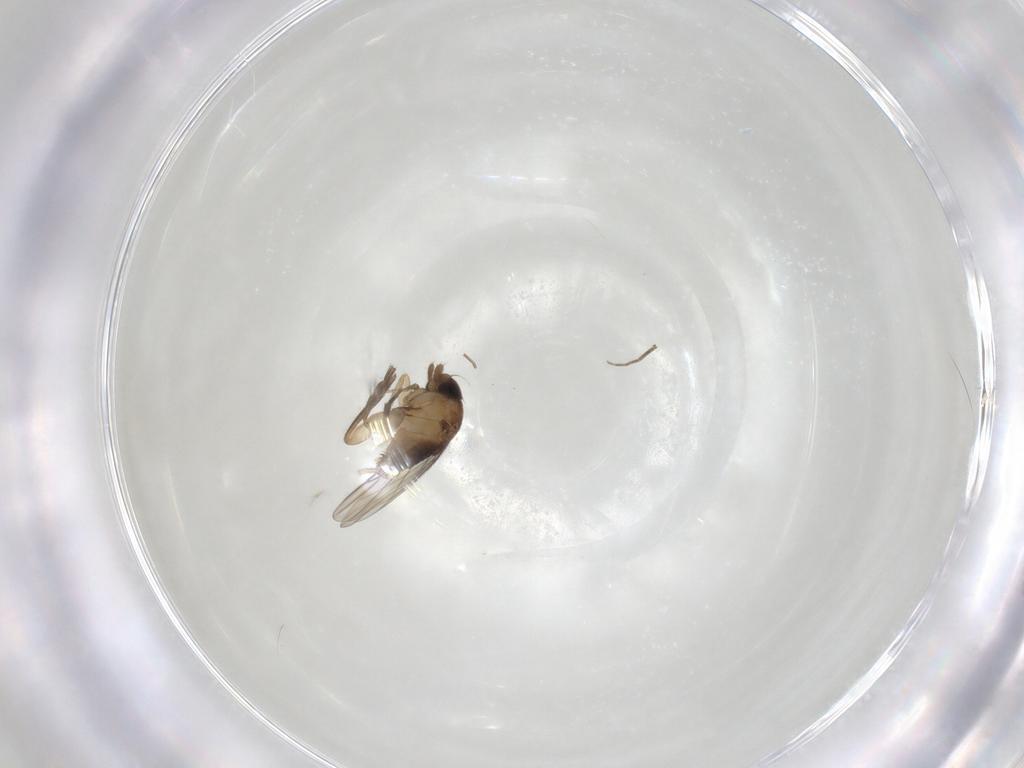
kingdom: Animalia
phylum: Arthropoda
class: Insecta
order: Diptera
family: Phoridae
